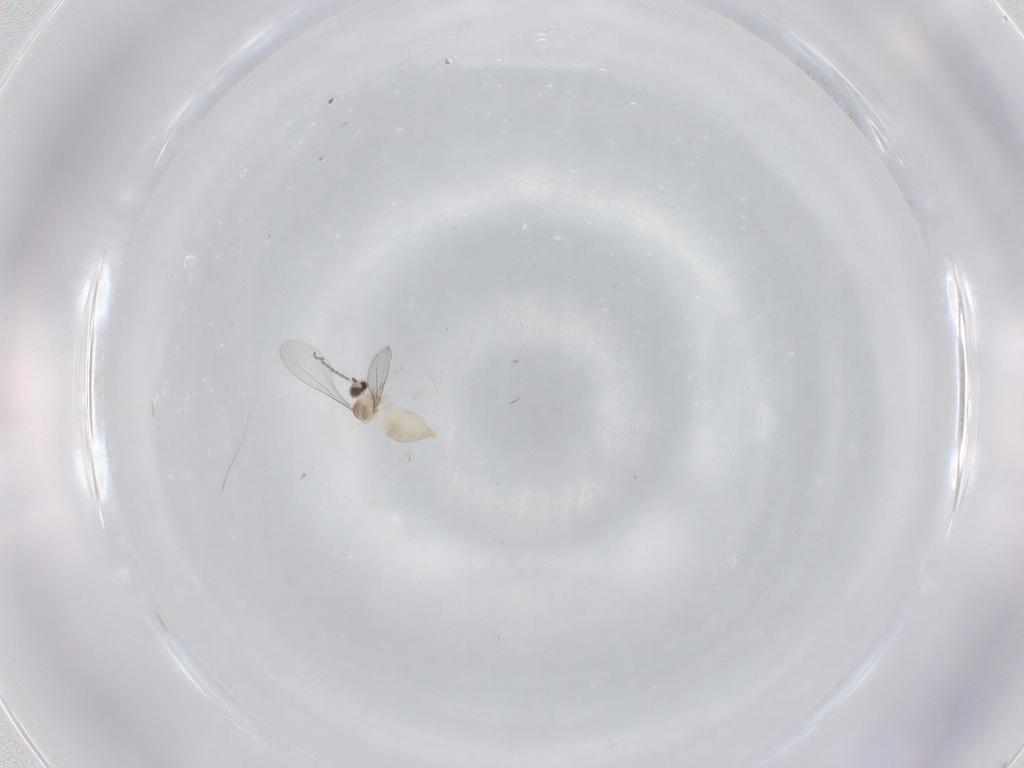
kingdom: Animalia
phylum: Arthropoda
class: Insecta
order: Diptera
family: Cecidomyiidae
